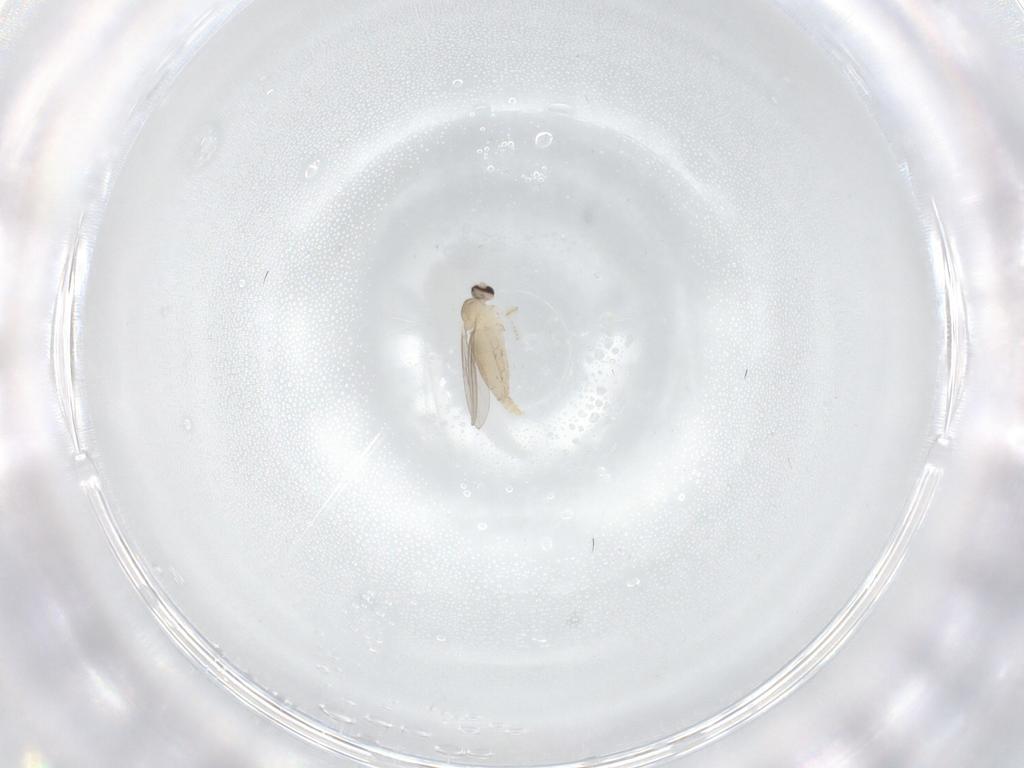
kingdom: Animalia
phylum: Arthropoda
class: Insecta
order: Diptera
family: Cecidomyiidae
